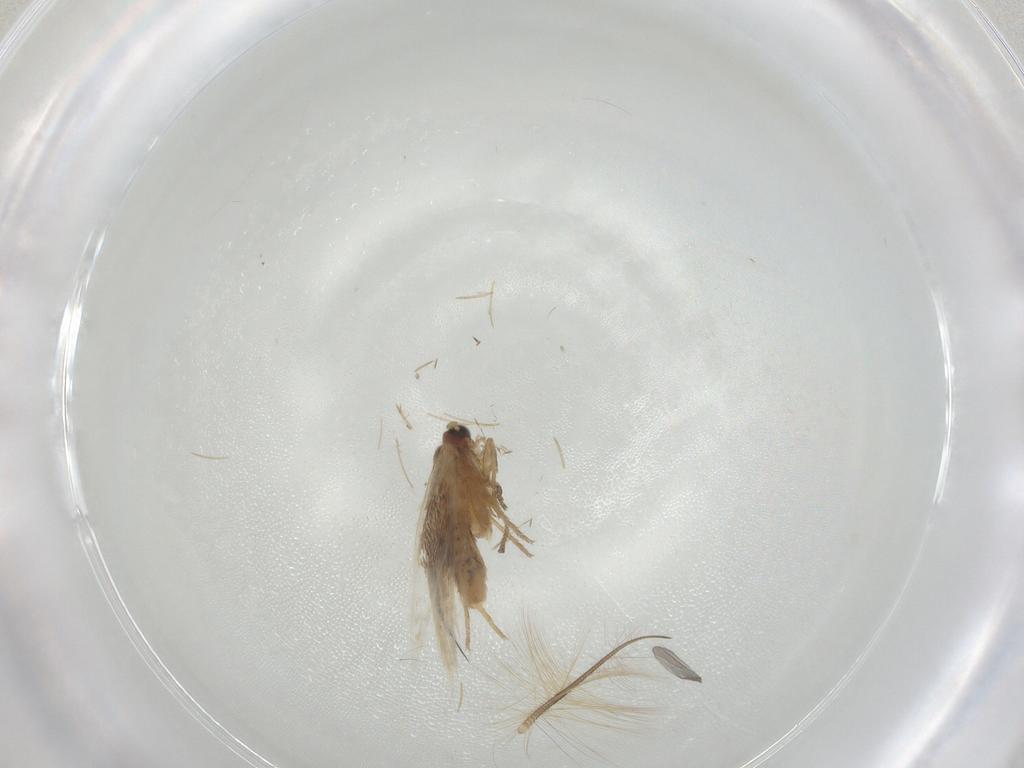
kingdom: Animalia
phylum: Arthropoda
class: Insecta
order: Lepidoptera
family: Nepticulidae
